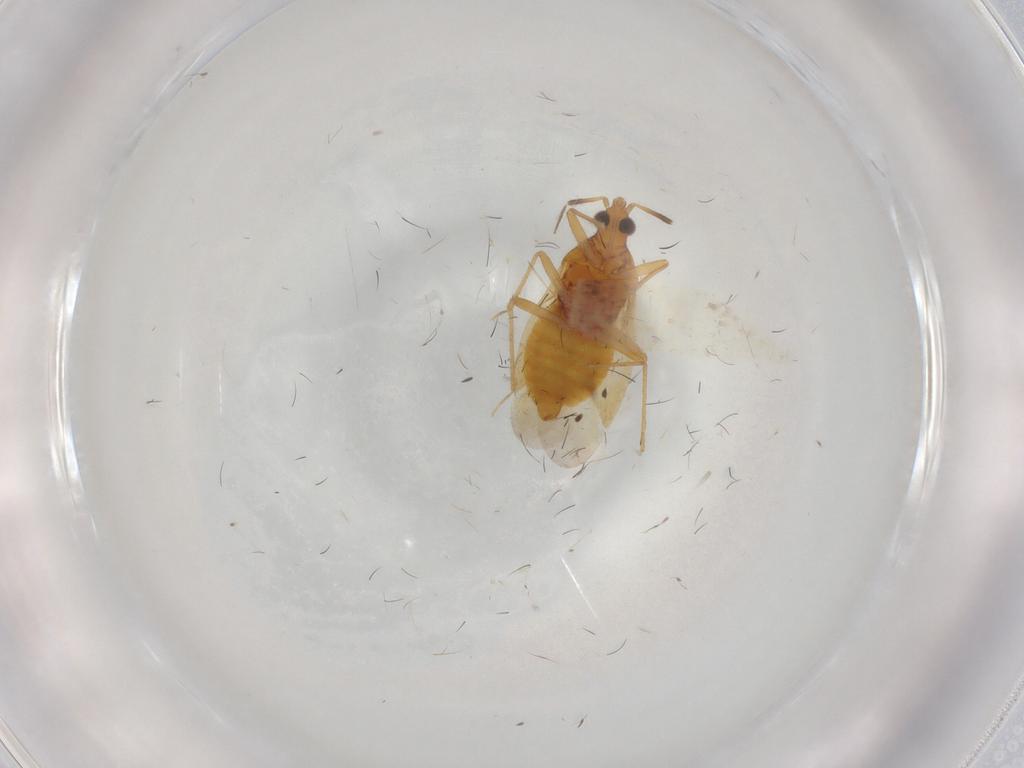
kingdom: Animalia
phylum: Arthropoda
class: Insecta
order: Hemiptera
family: Anthocoridae
